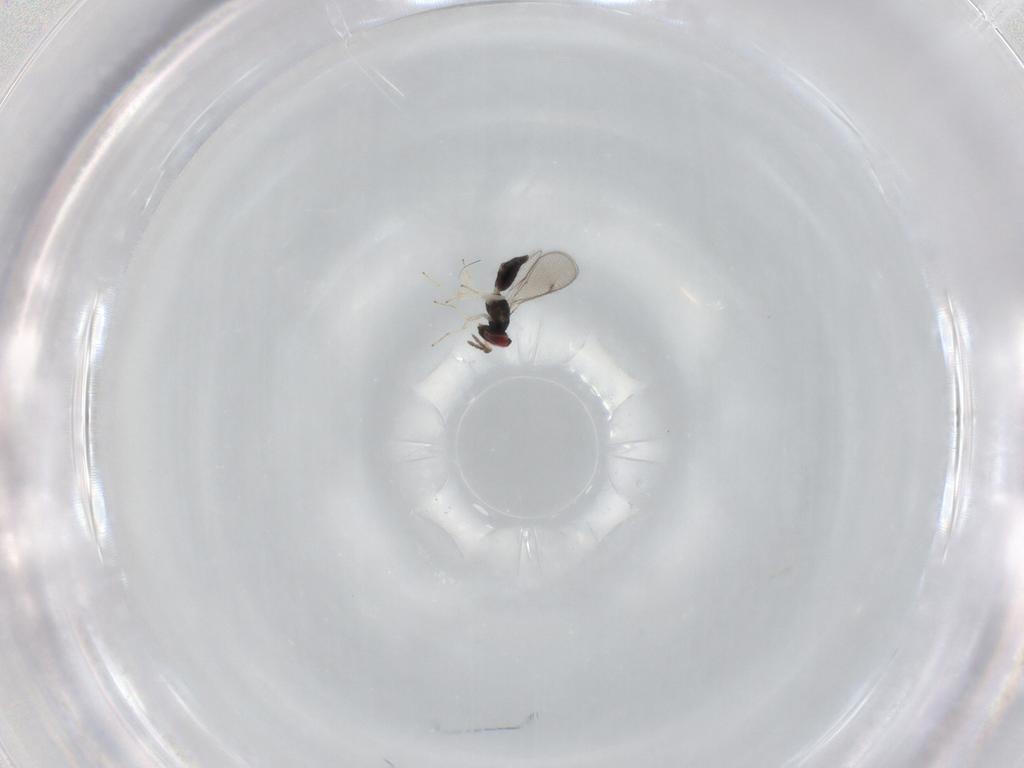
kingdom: Animalia
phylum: Arthropoda
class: Insecta
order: Hymenoptera
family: Eulophidae
